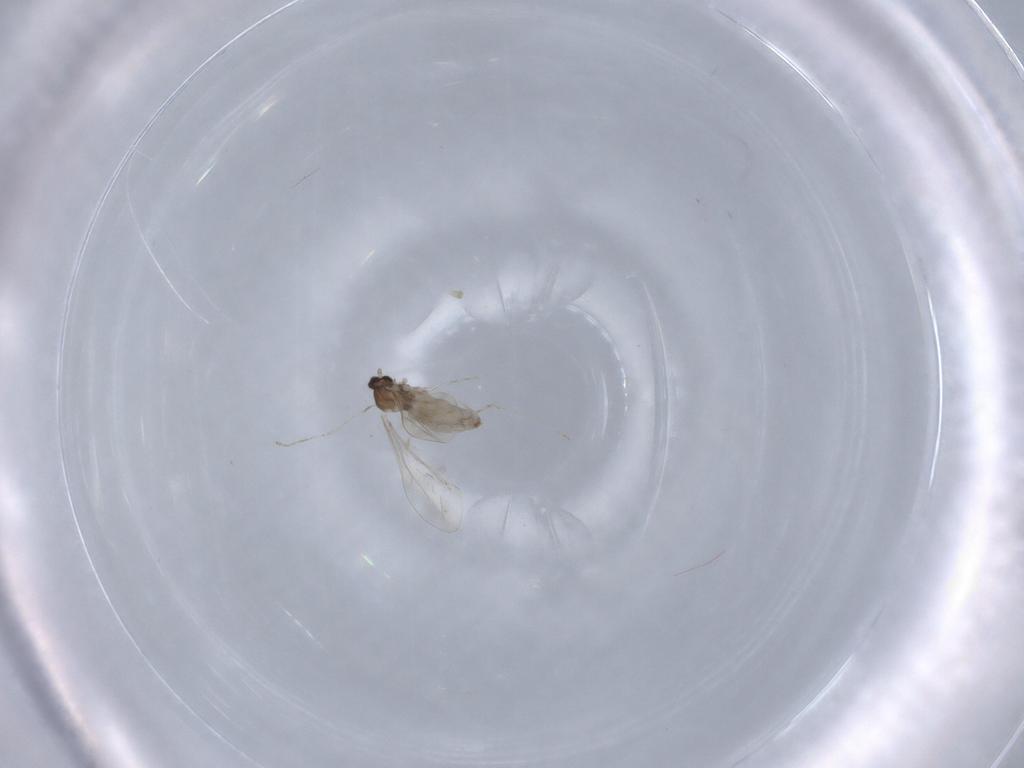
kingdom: Animalia
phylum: Arthropoda
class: Insecta
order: Diptera
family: Cecidomyiidae
